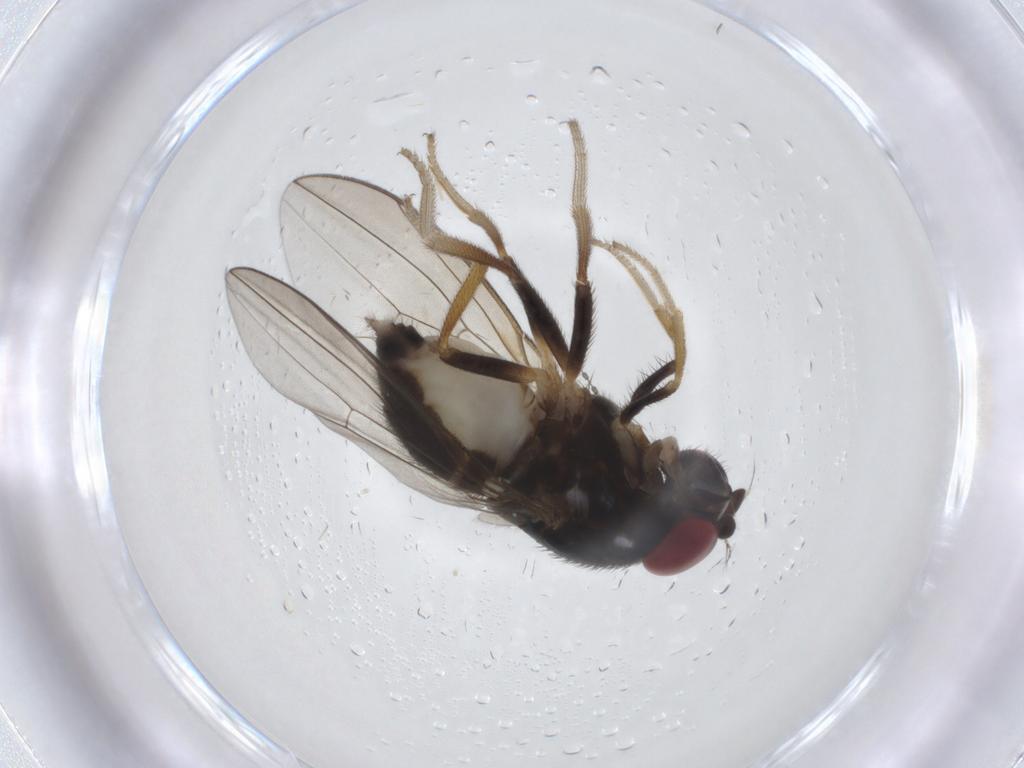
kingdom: Animalia
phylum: Arthropoda
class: Insecta
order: Diptera
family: Drosophilidae
